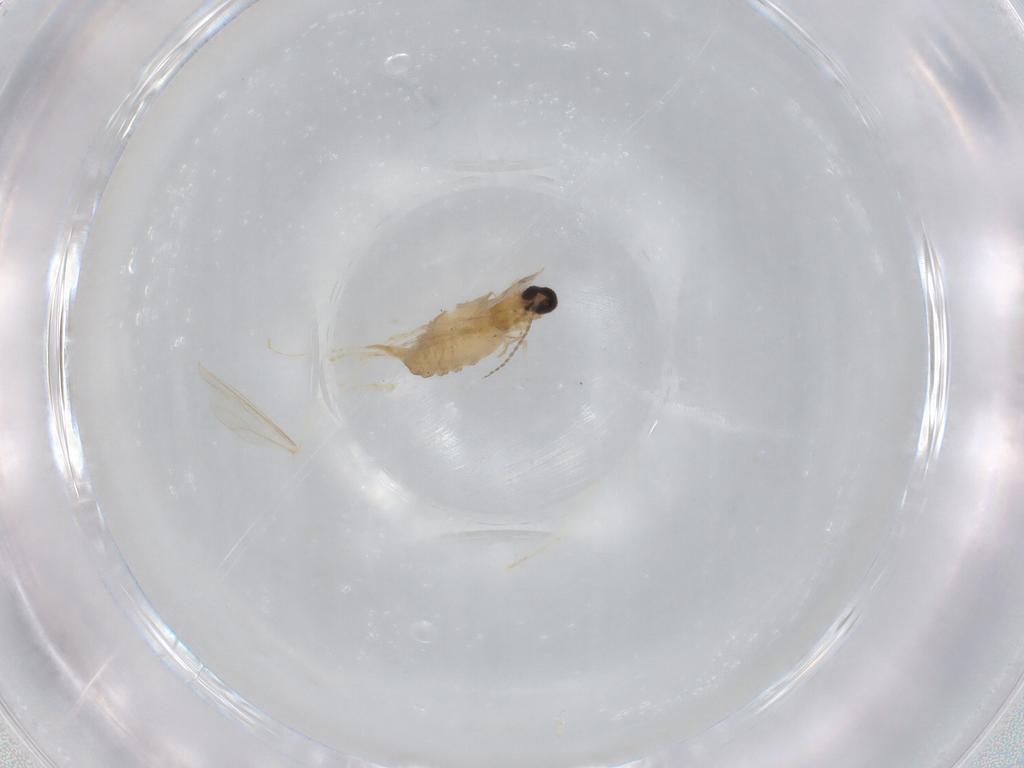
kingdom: Animalia
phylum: Arthropoda
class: Insecta
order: Diptera
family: Cecidomyiidae
